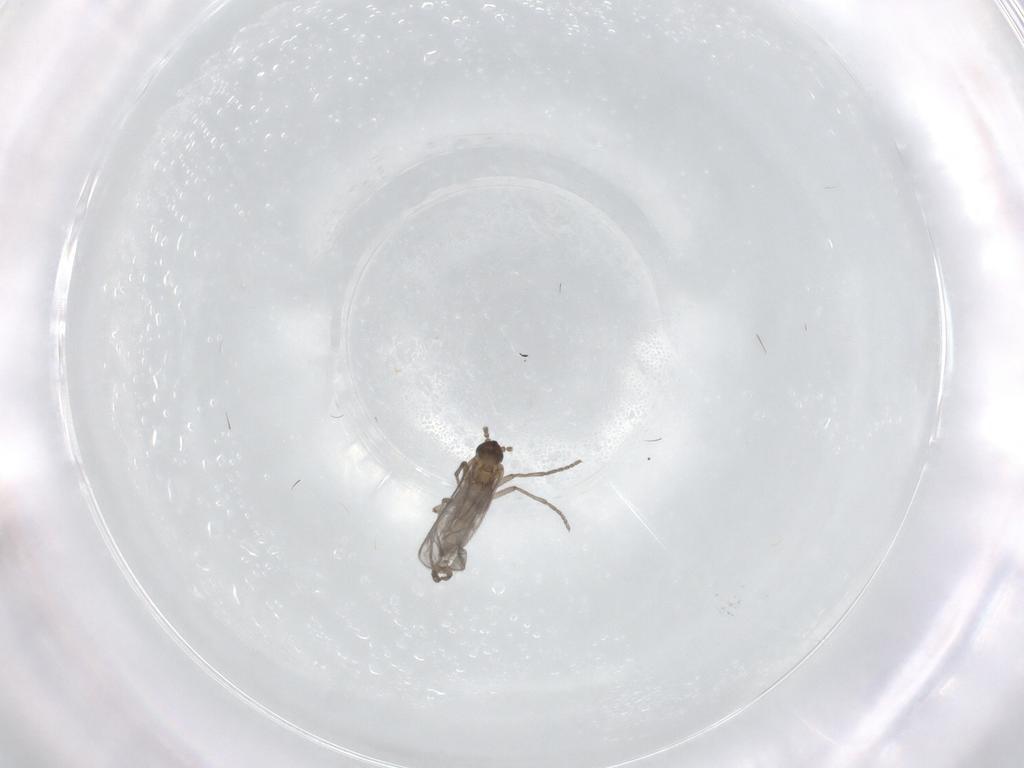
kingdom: Animalia
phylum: Arthropoda
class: Insecta
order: Diptera
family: Sciaridae
